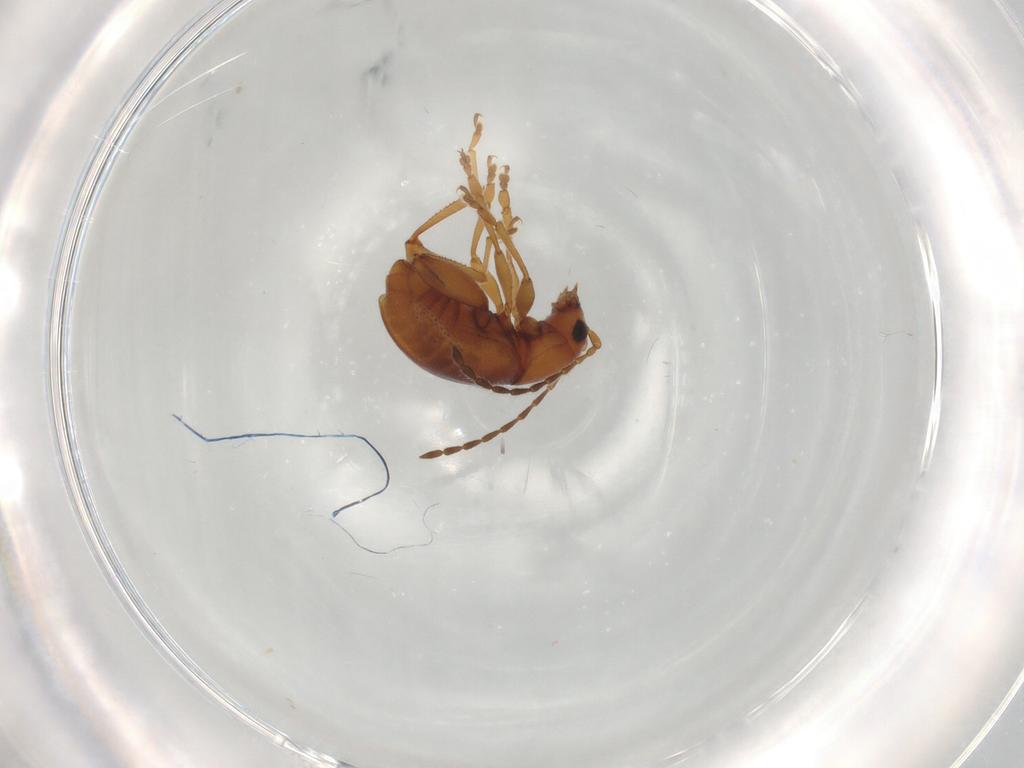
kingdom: Animalia
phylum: Arthropoda
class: Insecta
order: Coleoptera
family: Chrysomelidae
